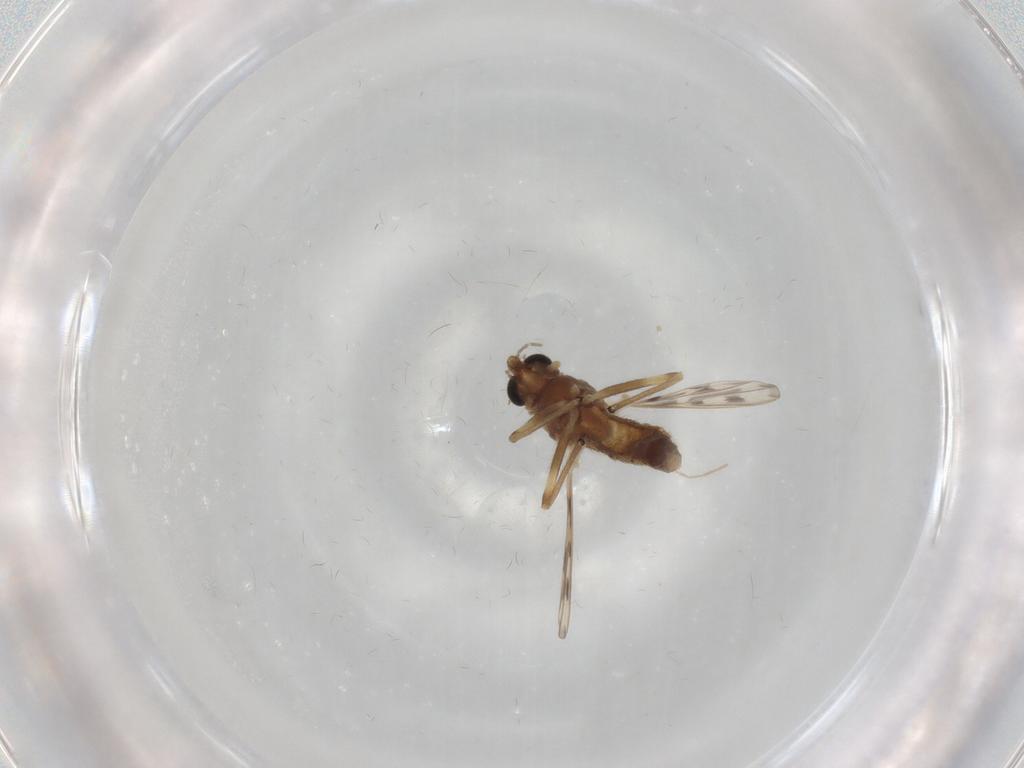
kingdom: Animalia
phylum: Arthropoda
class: Insecta
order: Diptera
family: Chironomidae
